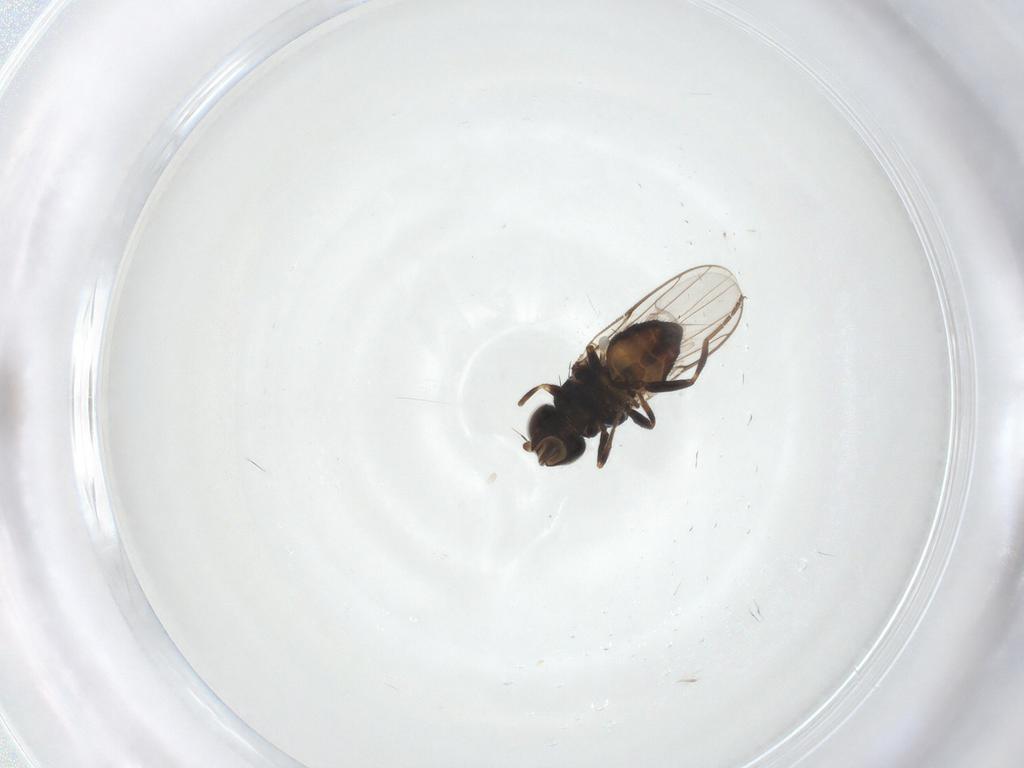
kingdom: Animalia
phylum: Arthropoda
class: Insecta
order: Diptera
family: Chloropidae
